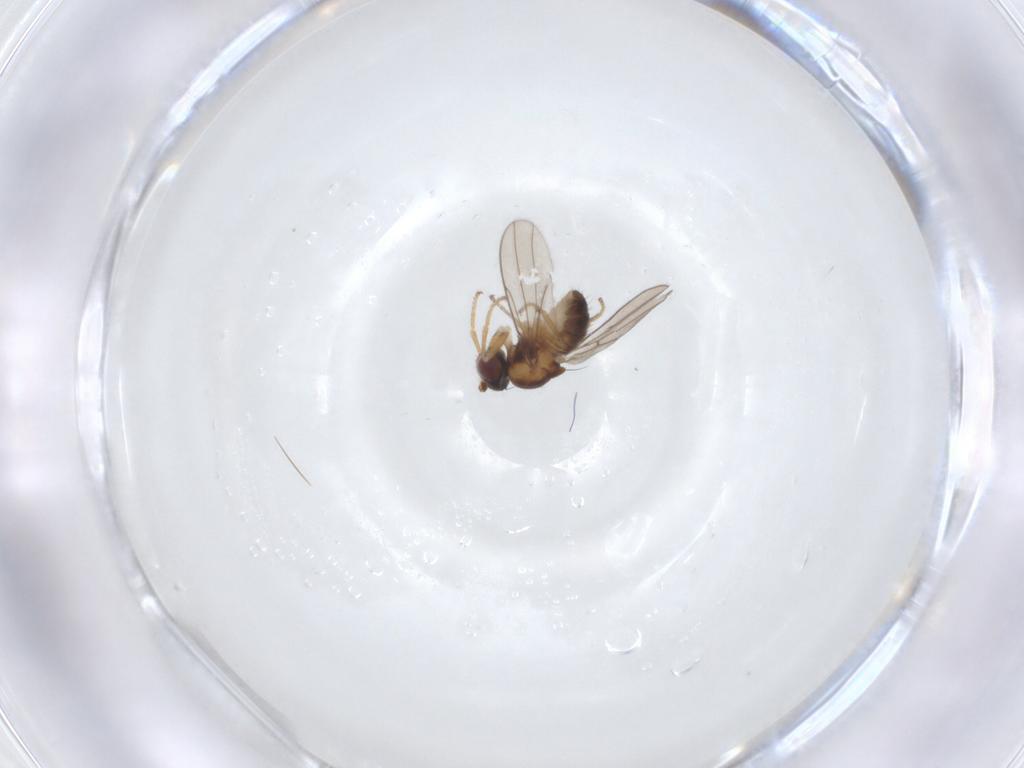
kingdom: Animalia
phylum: Arthropoda
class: Insecta
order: Diptera
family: Ephydridae
